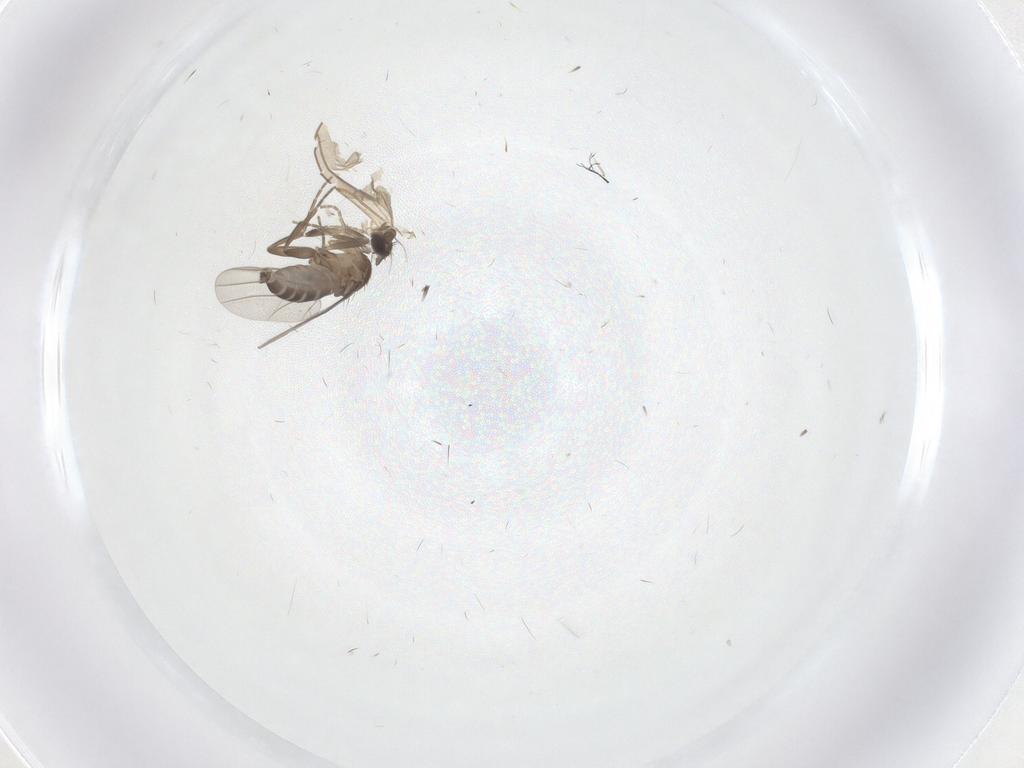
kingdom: Animalia
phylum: Arthropoda
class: Insecta
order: Diptera
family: Phoridae
